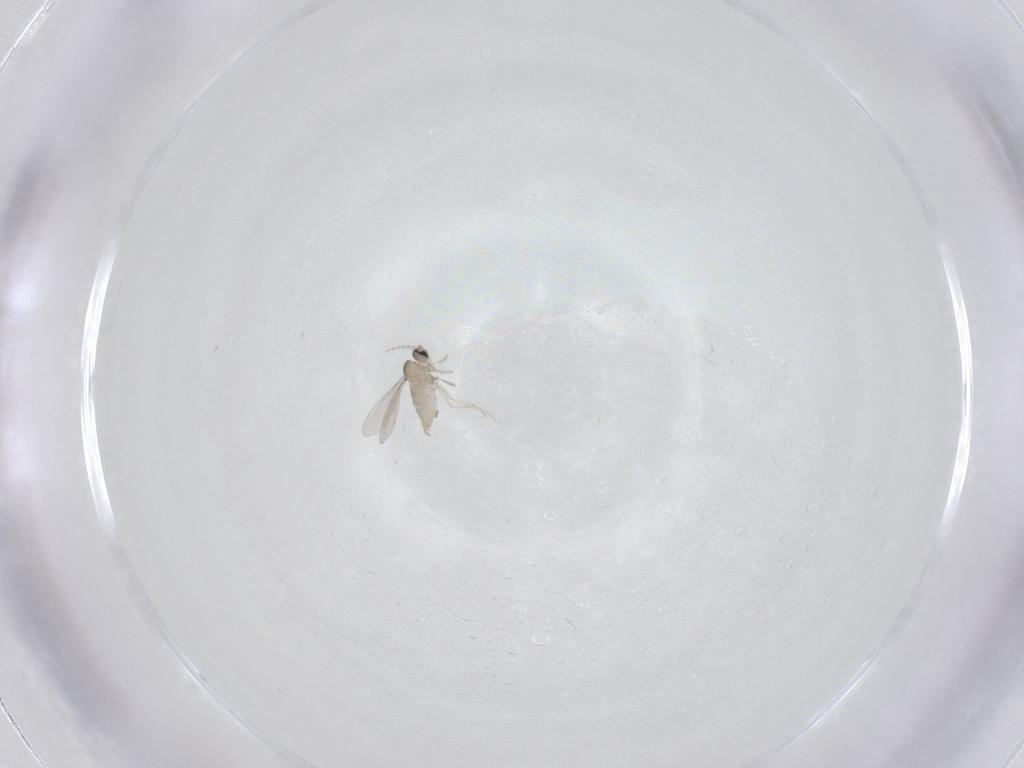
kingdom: Animalia
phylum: Arthropoda
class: Insecta
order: Diptera
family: Cecidomyiidae
